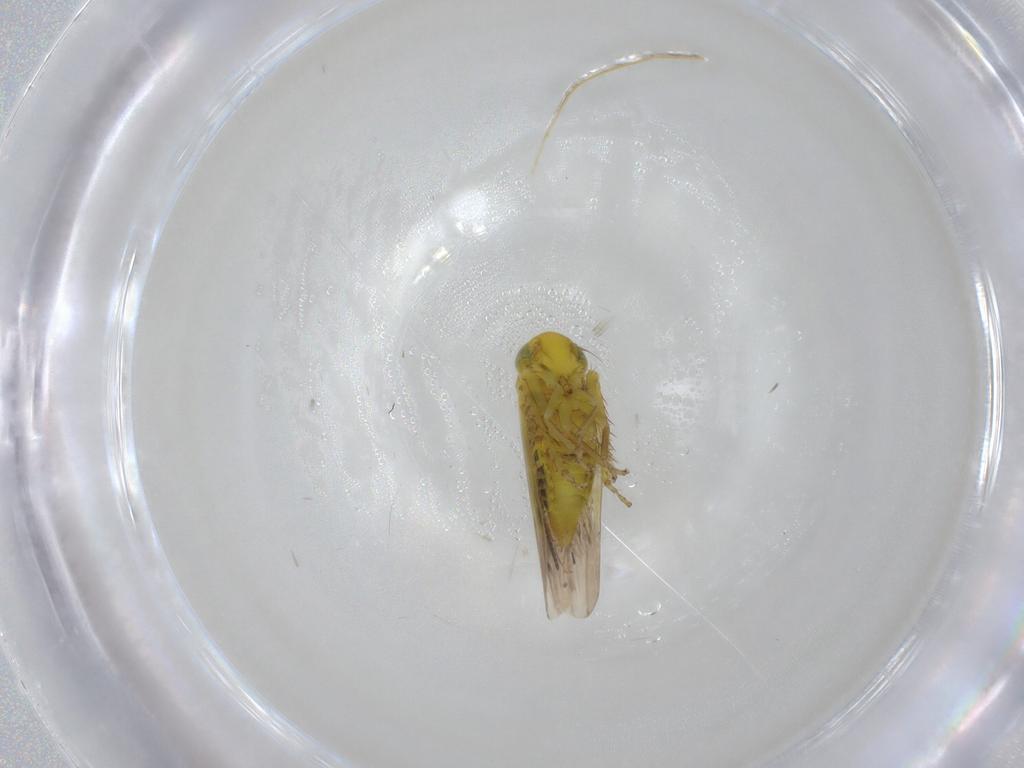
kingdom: Animalia
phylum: Arthropoda
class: Insecta
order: Hemiptera
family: Cicadellidae
